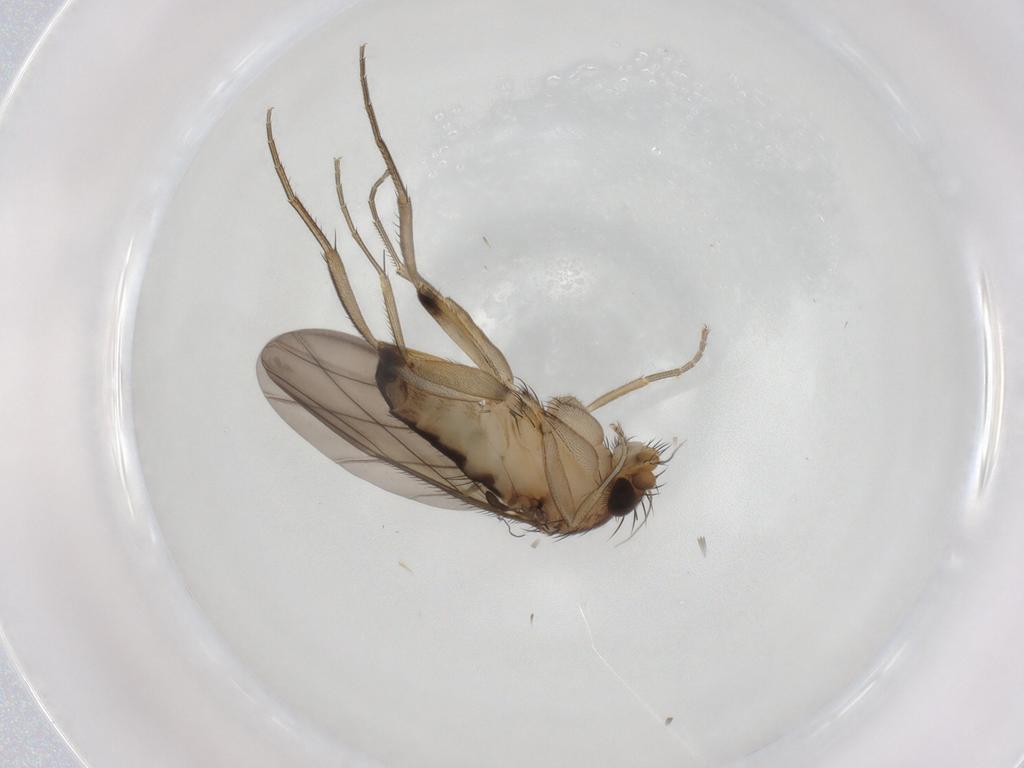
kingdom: Animalia
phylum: Arthropoda
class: Insecta
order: Diptera
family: Phoridae
